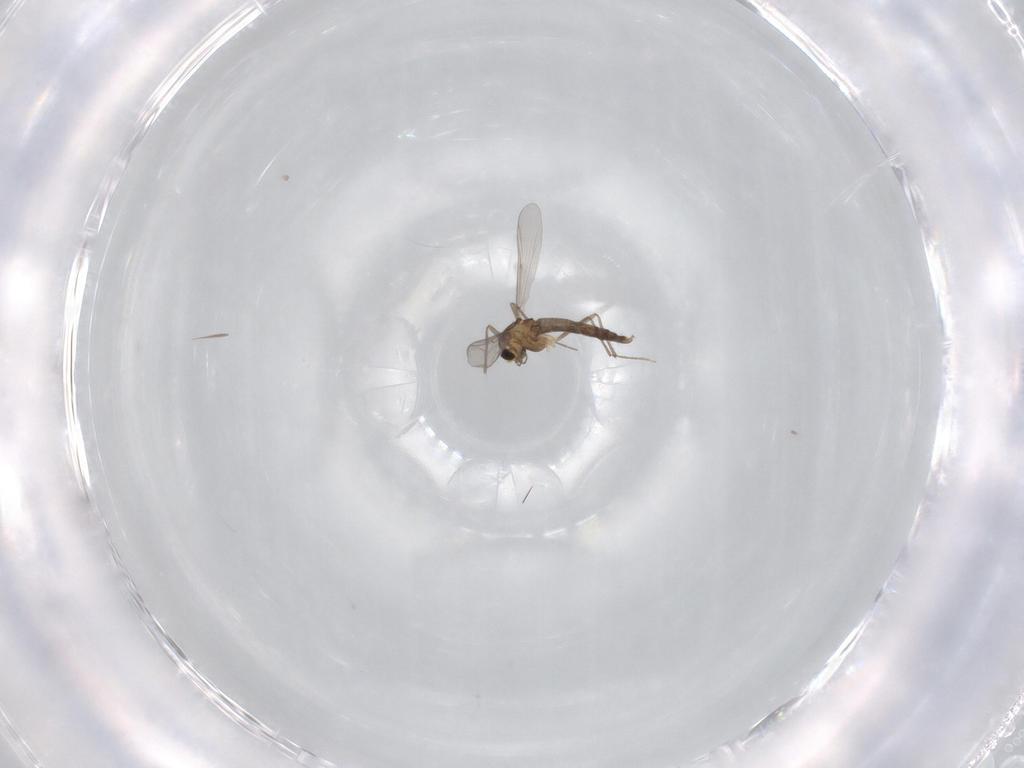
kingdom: Animalia
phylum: Arthropoda
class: Insecta
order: Diptera
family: Chironomidae
